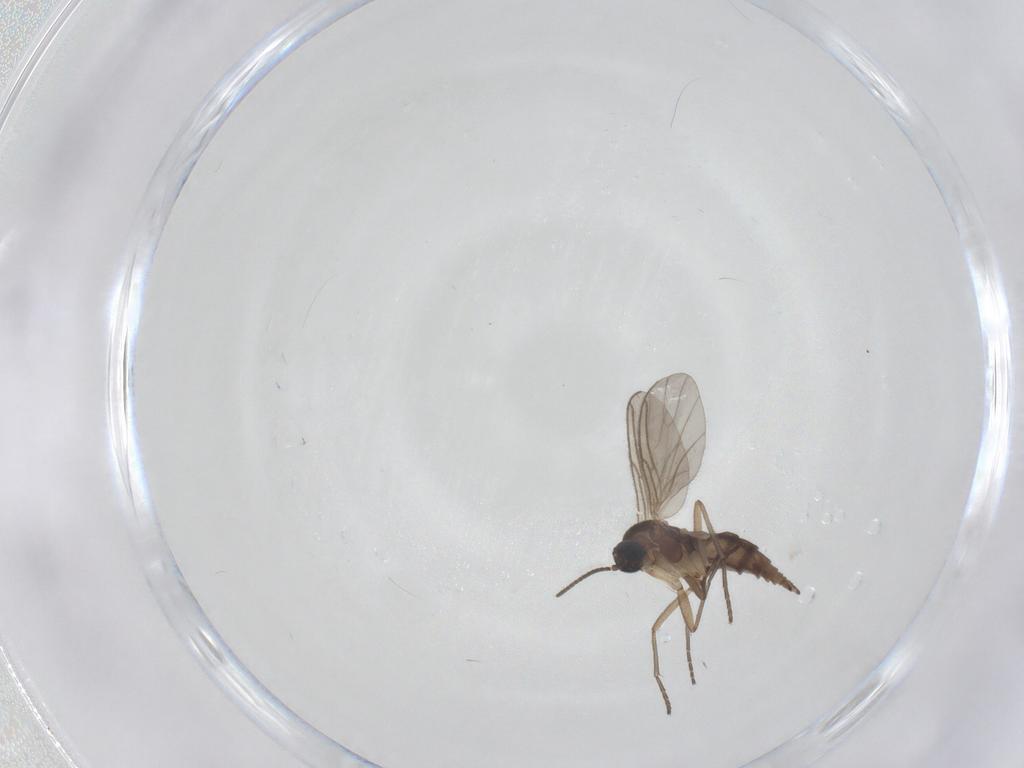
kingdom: Animalia
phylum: Arthropoda
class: Insecta
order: Diptera
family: Sciaridae
